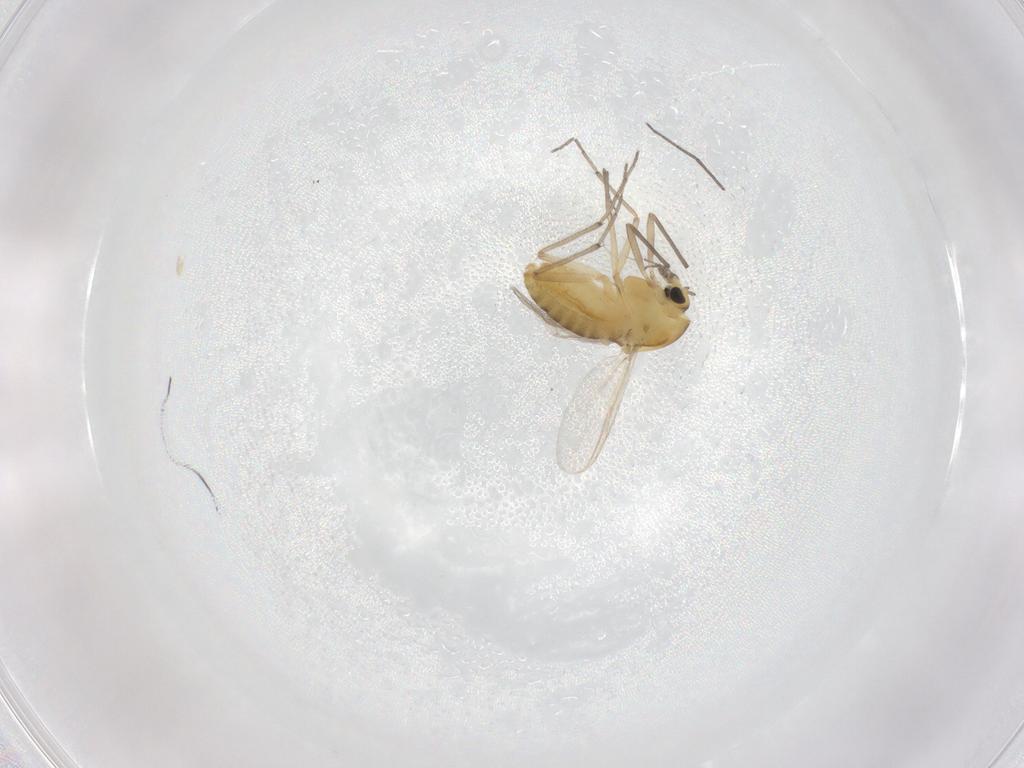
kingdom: Animalia
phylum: Arthropoda
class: Insecta
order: Diptera
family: Chironomidae
